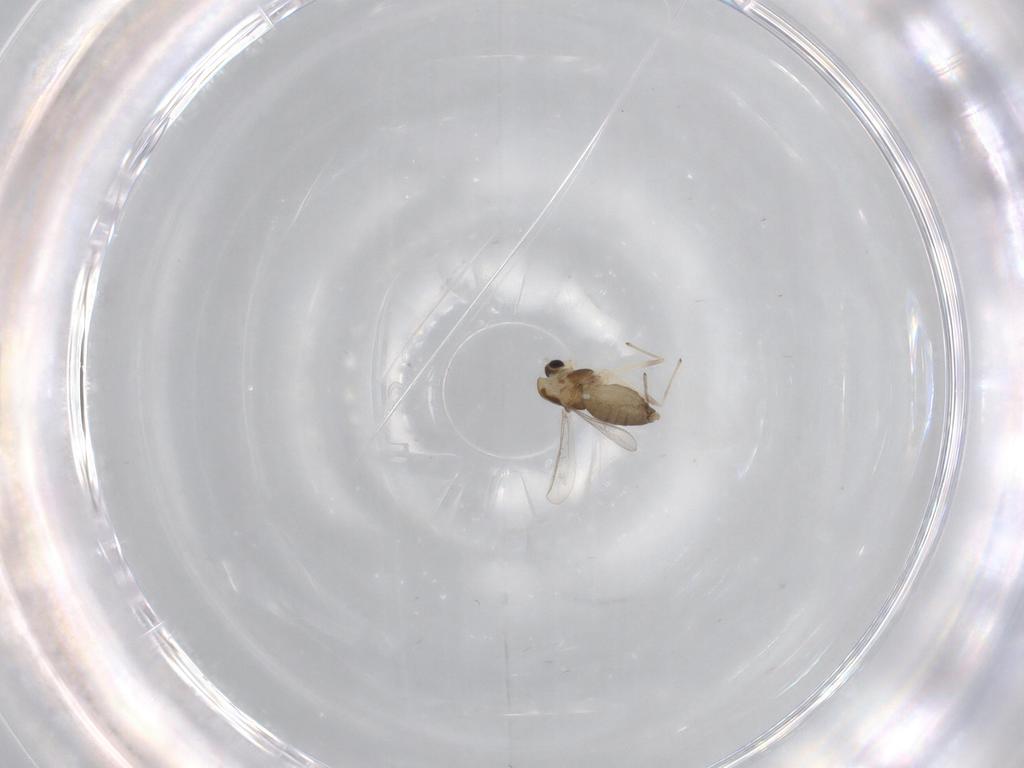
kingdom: Animalia
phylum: Arthropoda
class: Insecta
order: Diptera
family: Chironomidae
